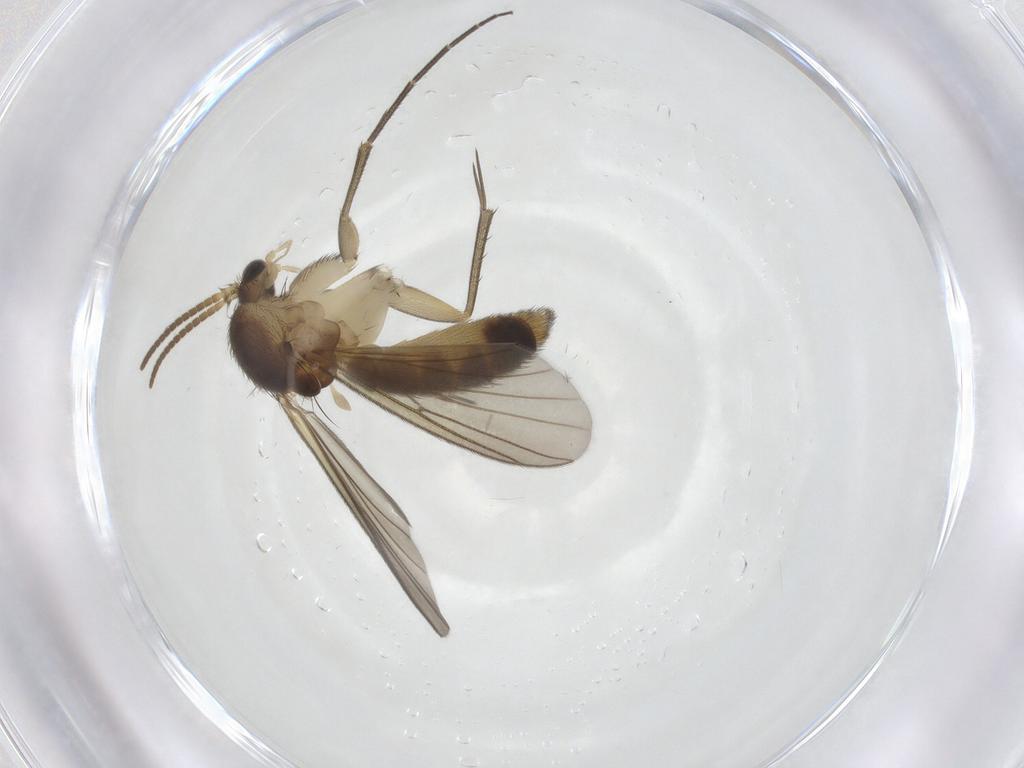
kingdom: Animalia
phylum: Arthropoda
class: Insecta
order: Diptera
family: Mycetophilidae
